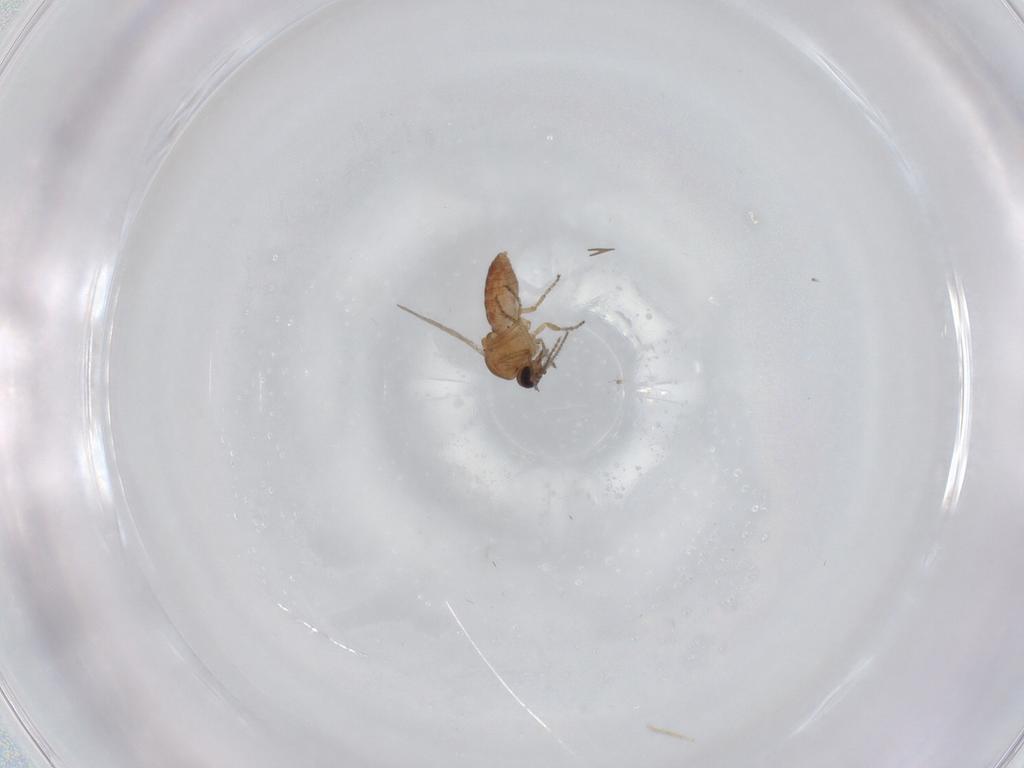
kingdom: Animalia
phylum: Arthropoda
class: Insecta
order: Diptera
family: Ceratopogonidae
